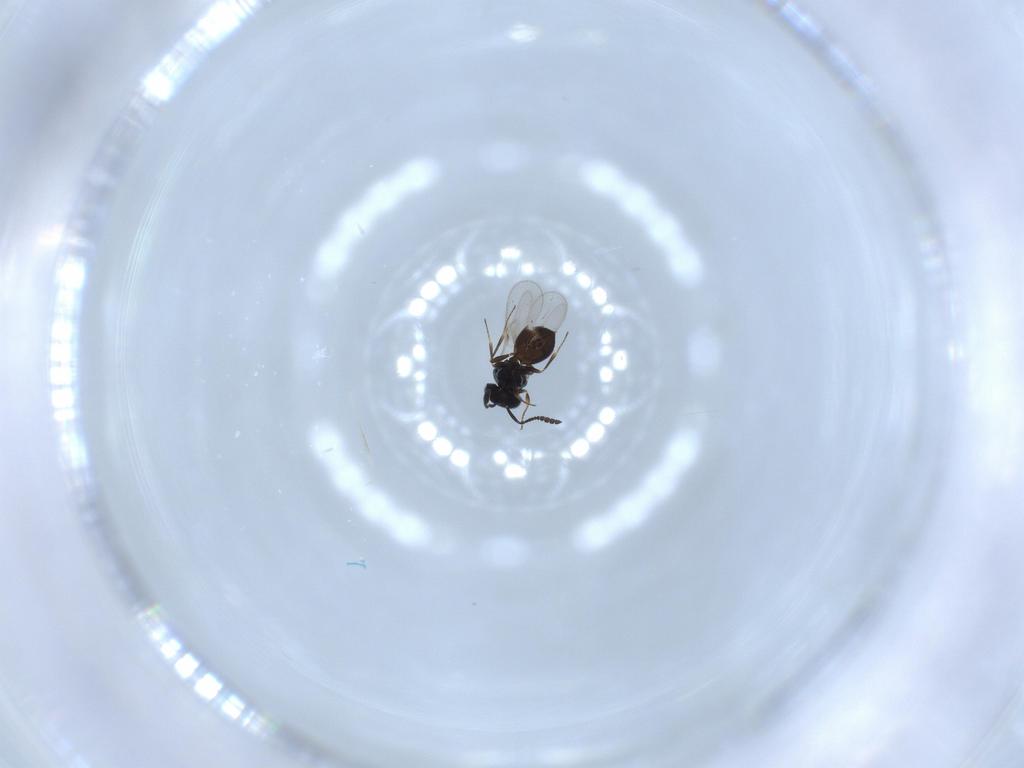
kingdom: Animalia
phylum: Arthropoda
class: Insecta
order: Hymenoptera
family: Scelionidae
